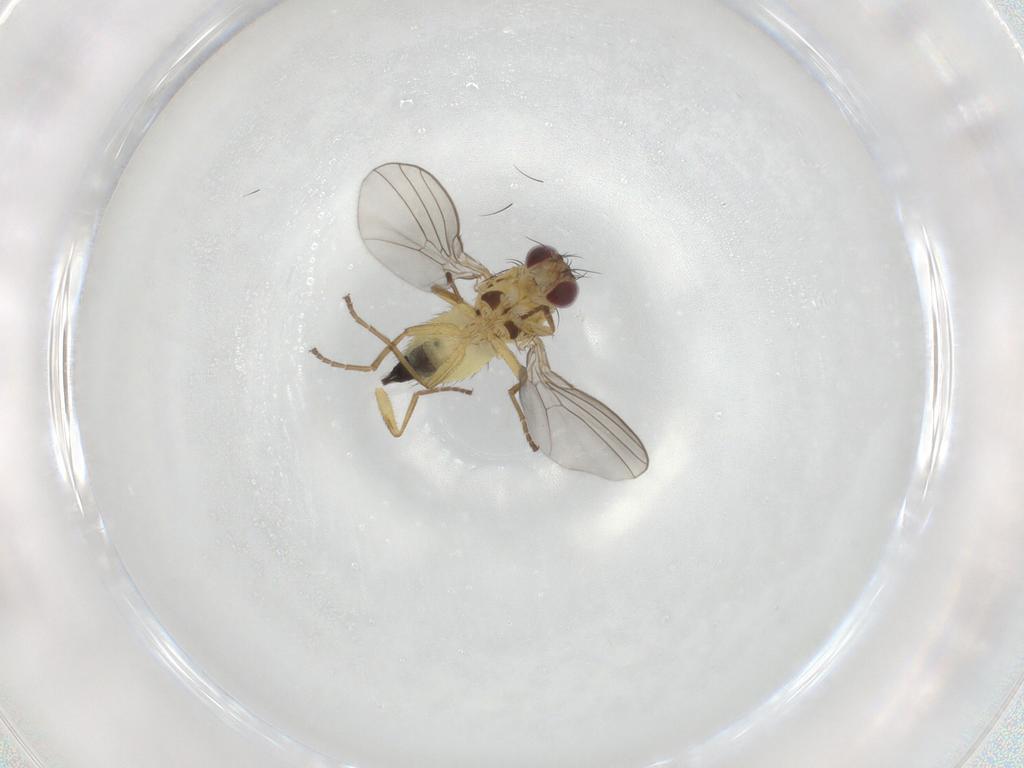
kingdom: Animalia
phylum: Arthropoda
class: Insecta
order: Diptera
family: Agromyzidae
